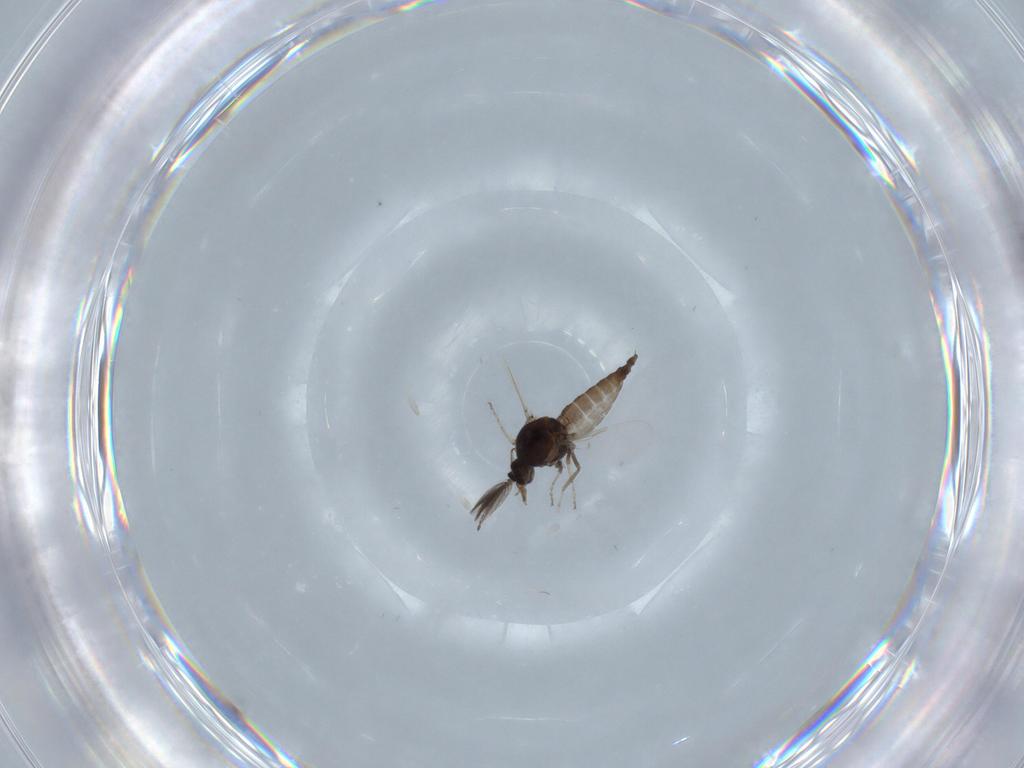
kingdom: Animalia
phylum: Arthropoda
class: Insecta
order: Diptera
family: Ceratopogonidae
